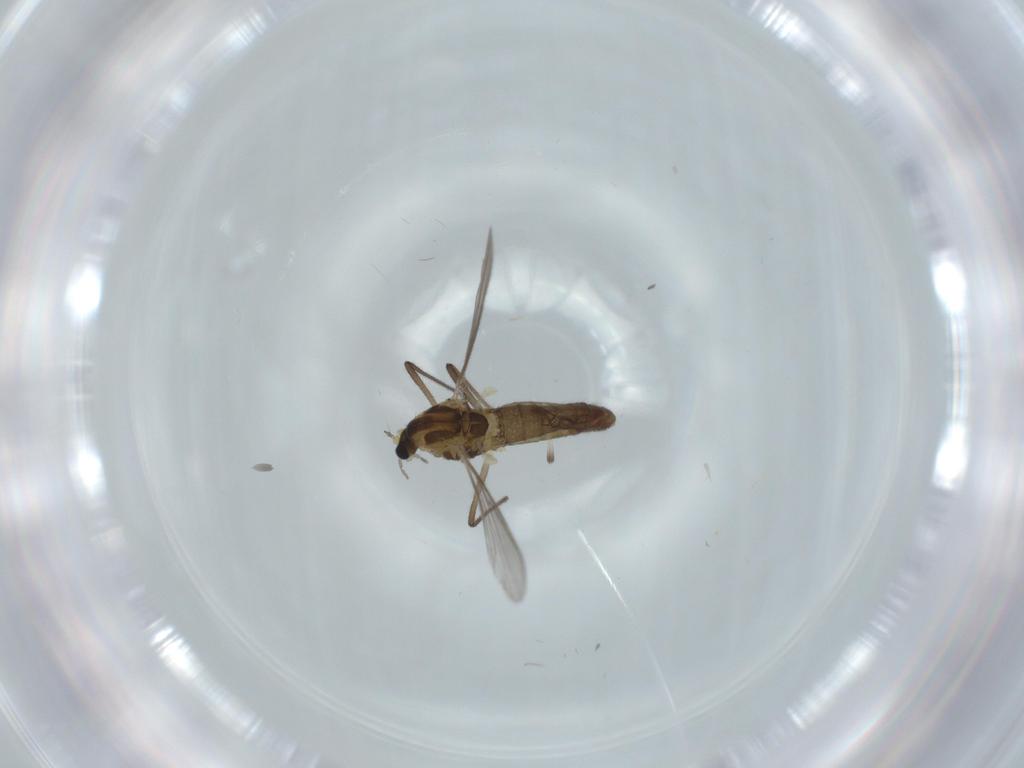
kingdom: Animalia
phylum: Arthropoda
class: Insecta
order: Diptera
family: Chironomidae
